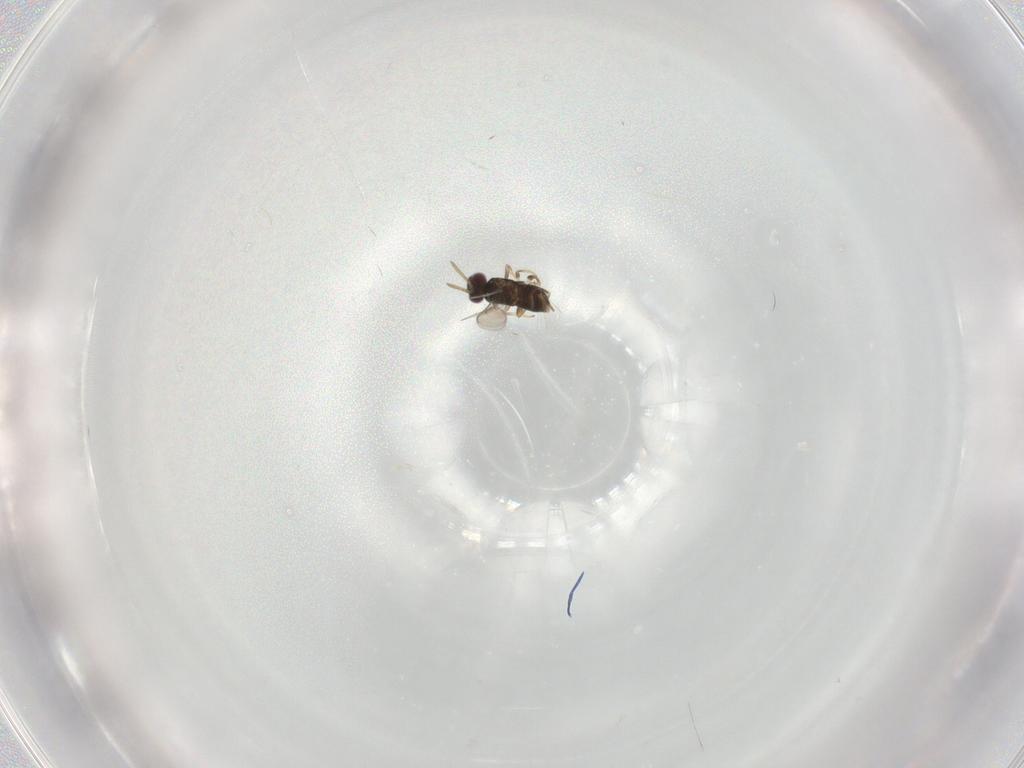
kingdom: Animalia
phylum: Arthropoda
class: Insecta
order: Hymenoptera
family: Aphelinidae
